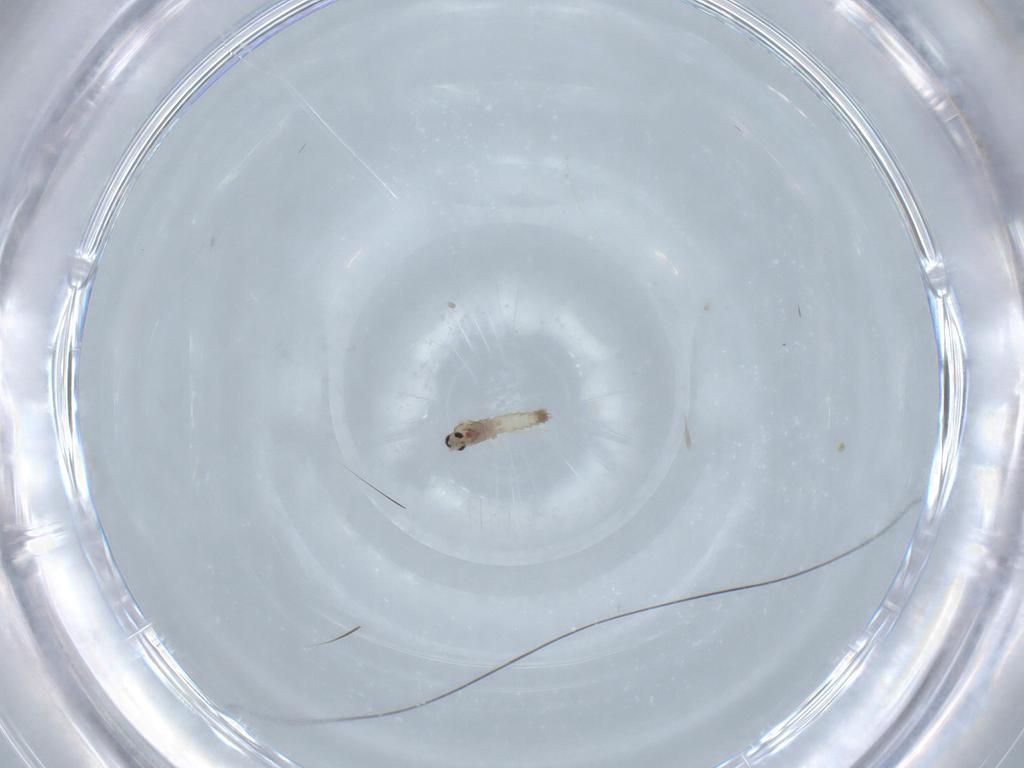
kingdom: Animalia
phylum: Arthropoda
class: Insecta
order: Diptera
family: Cecidomyiidae
